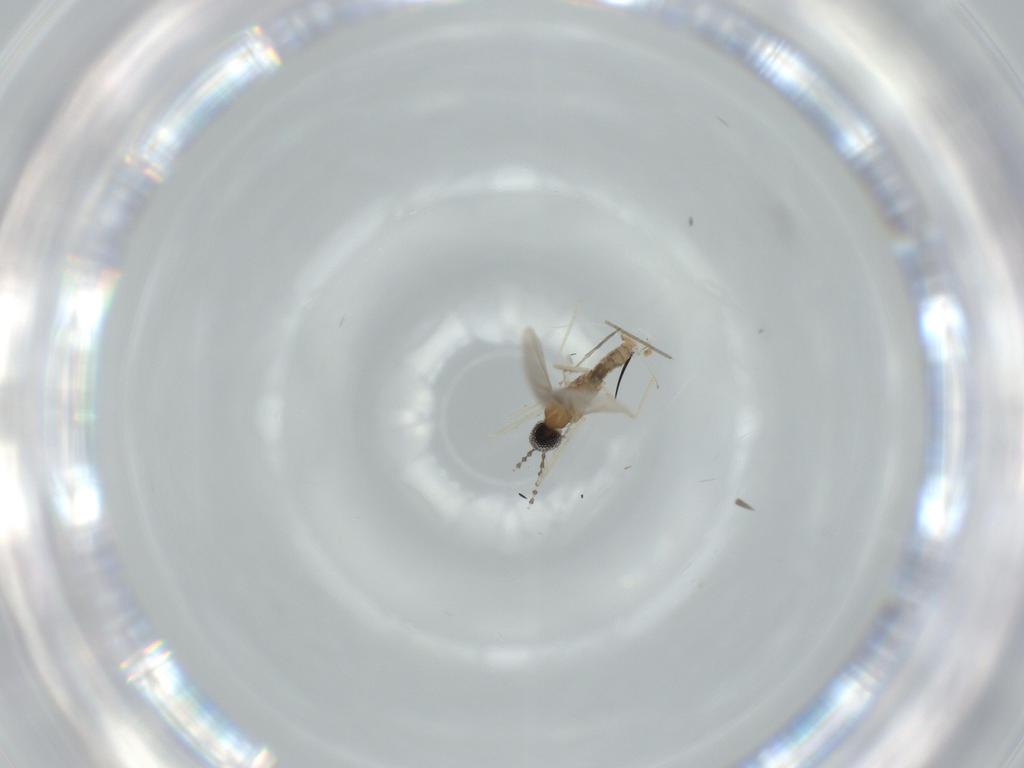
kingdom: Animalia
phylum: Arthropoda
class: Insecta
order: Diptera
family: Cecidomyiidae
